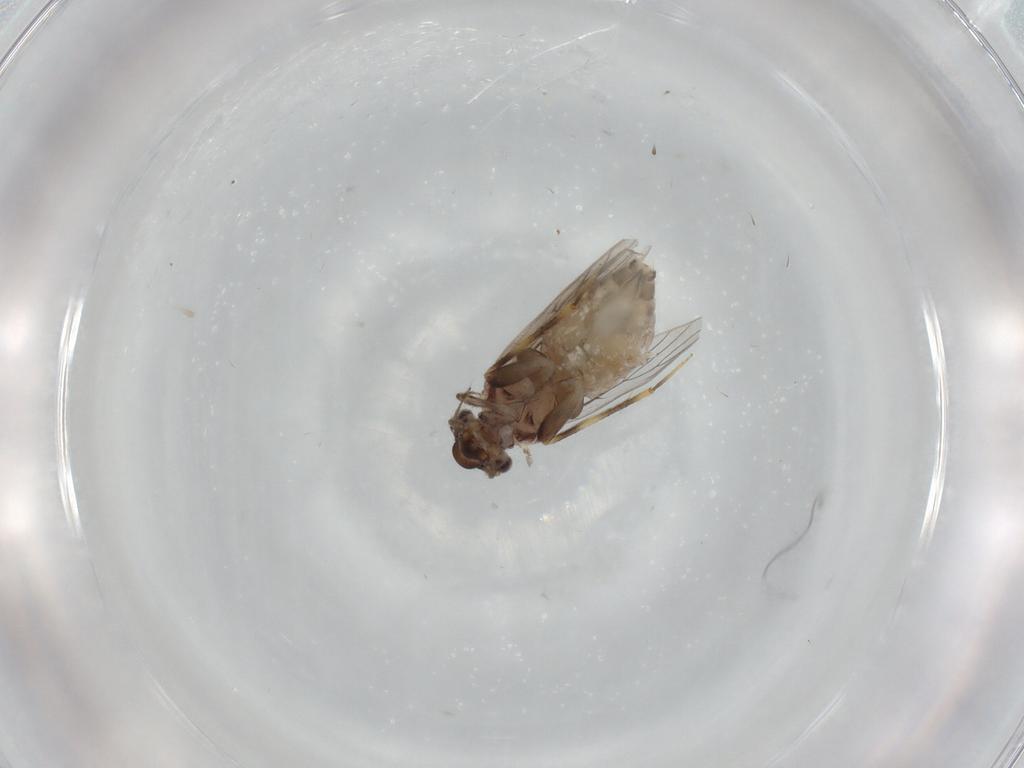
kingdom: Animalia
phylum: Arthropoda
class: Insecta
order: Psocodea
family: Lepidopsocidae
